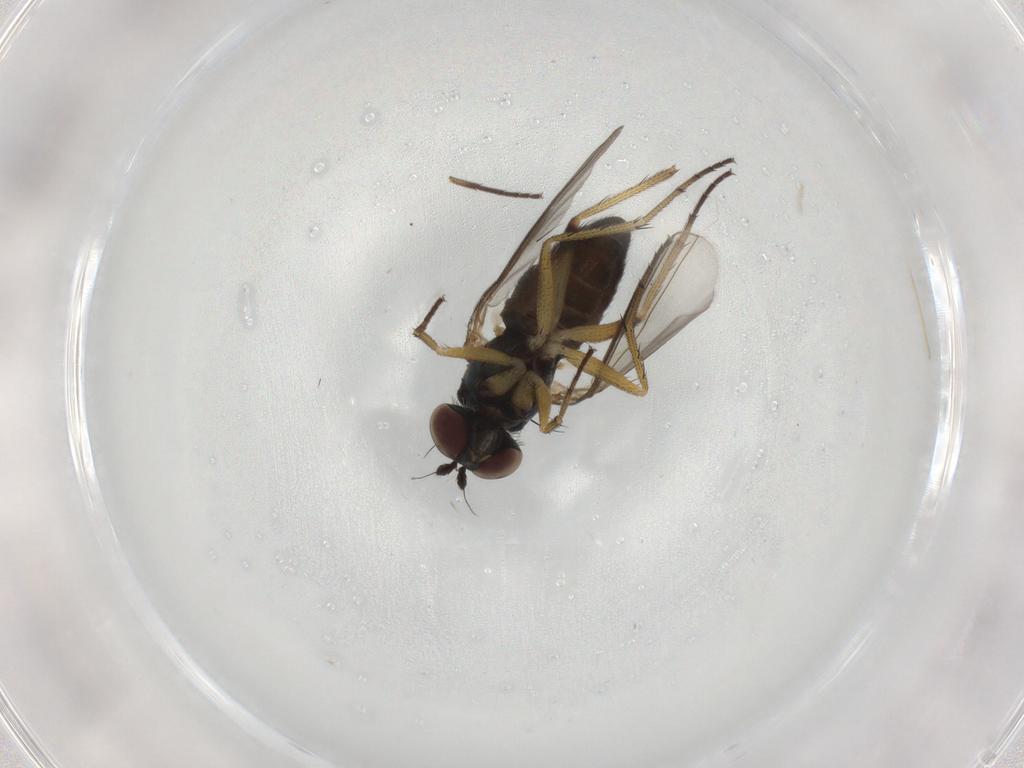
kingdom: Animalia
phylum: Arthropoda
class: Insecta
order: Diptera
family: Dolichopodidae
